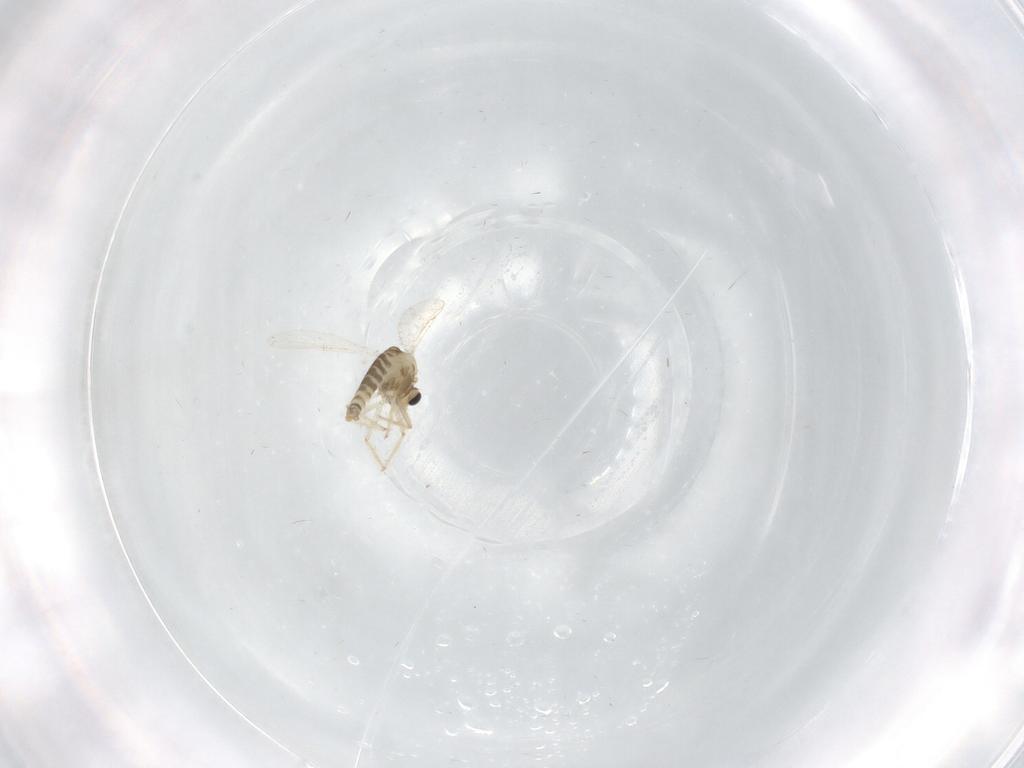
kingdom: Animalia
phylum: Arthropoda
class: Insecta
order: Diptera
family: Chironomidae
